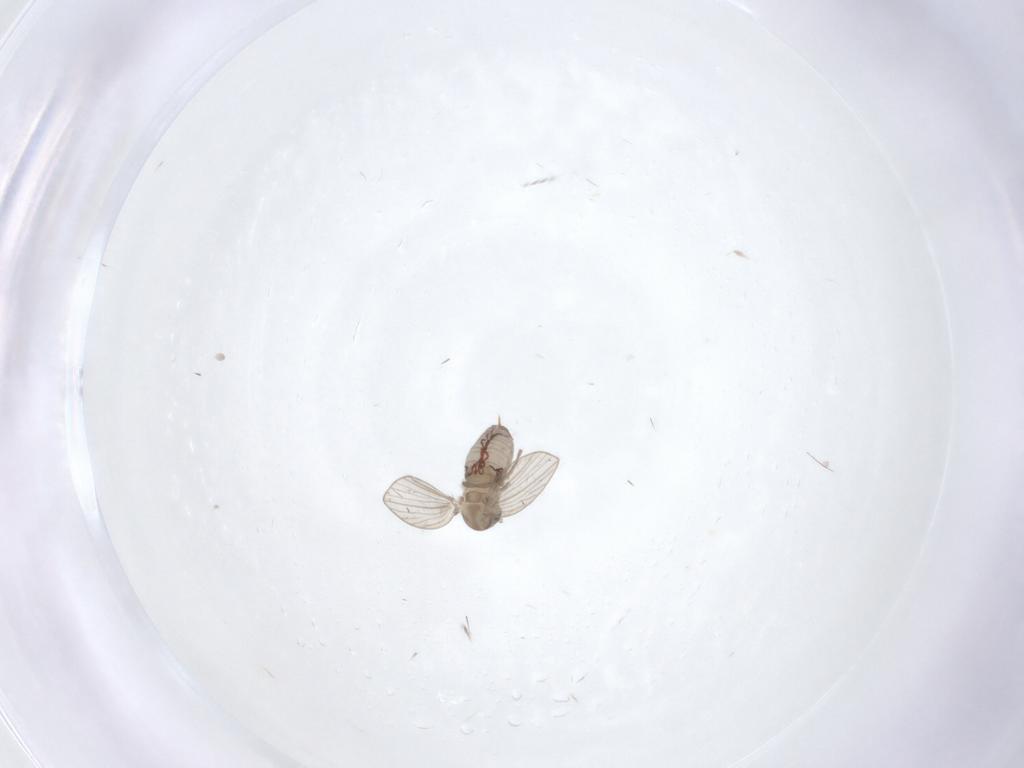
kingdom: Animalia
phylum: Arthropoda
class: Insecta
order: Diptera
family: Psychodidae
